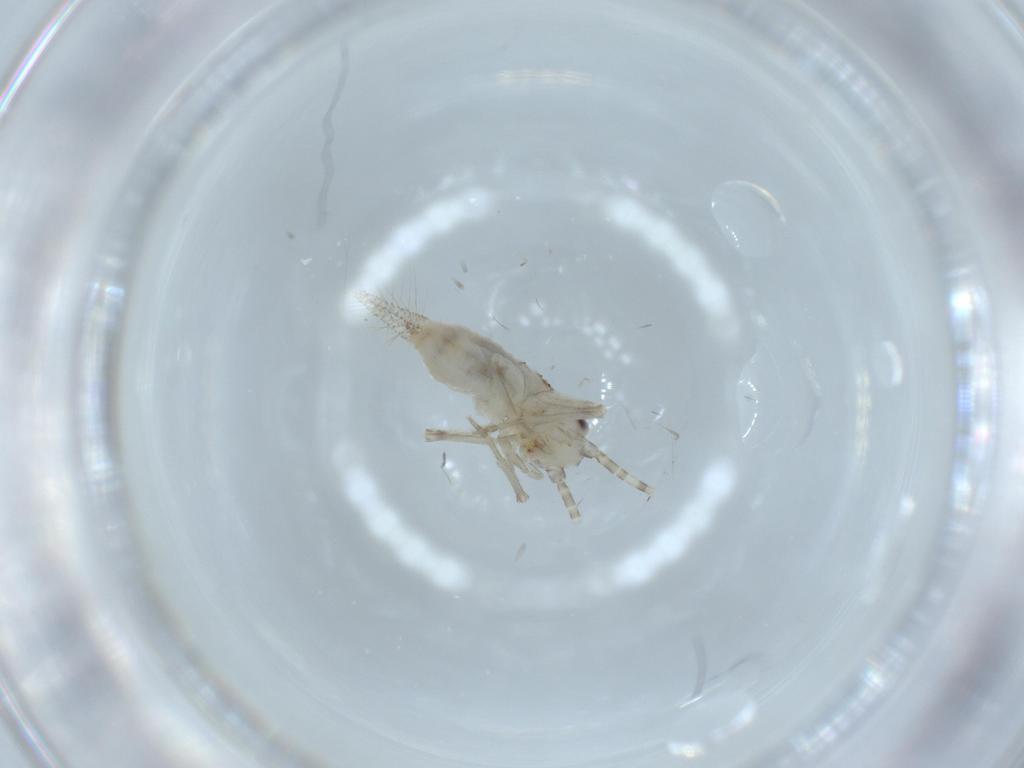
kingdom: Animalia
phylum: Arthropoda
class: Insecta
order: Orthoptera
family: Trigonidiidae
